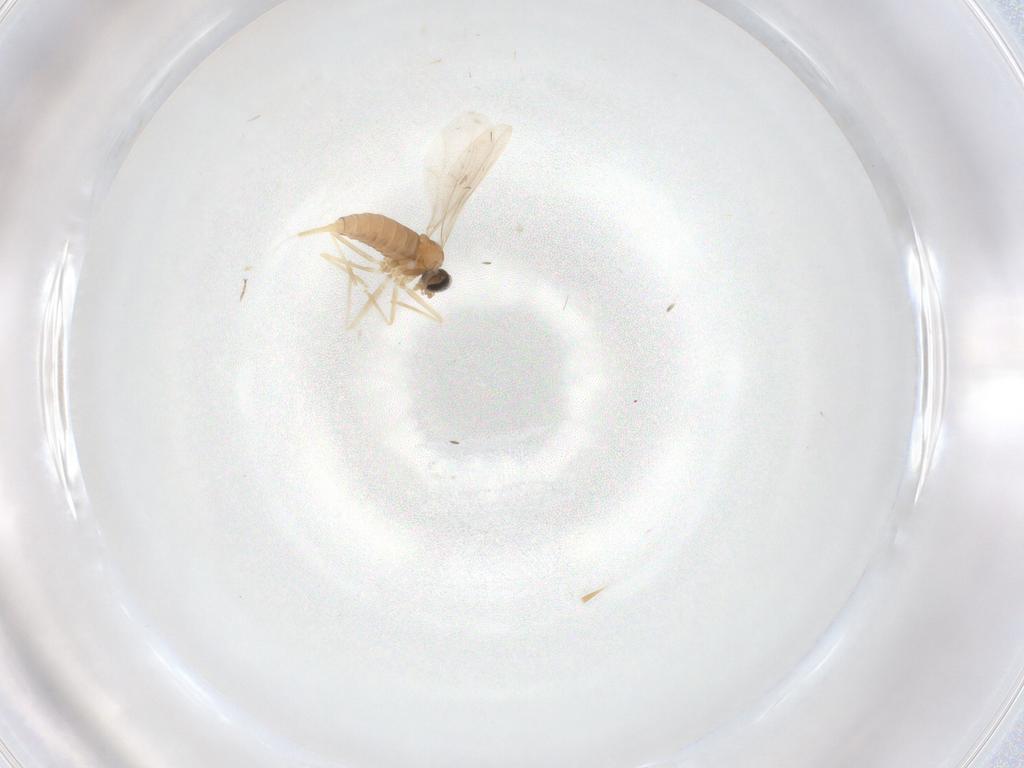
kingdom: Animalia
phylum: Arthropoda
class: Insecta
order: Diptera
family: Cecidomyiidae
